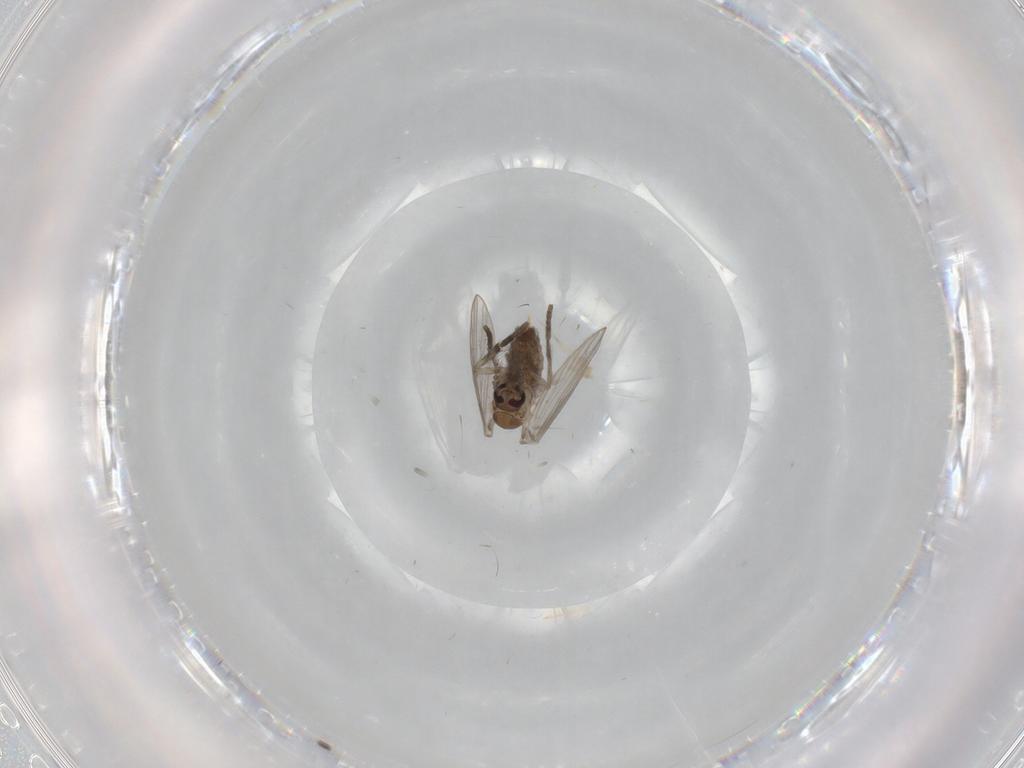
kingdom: Animalia
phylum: Arthropoda
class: Insecta
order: Diptera
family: Psychodidae
